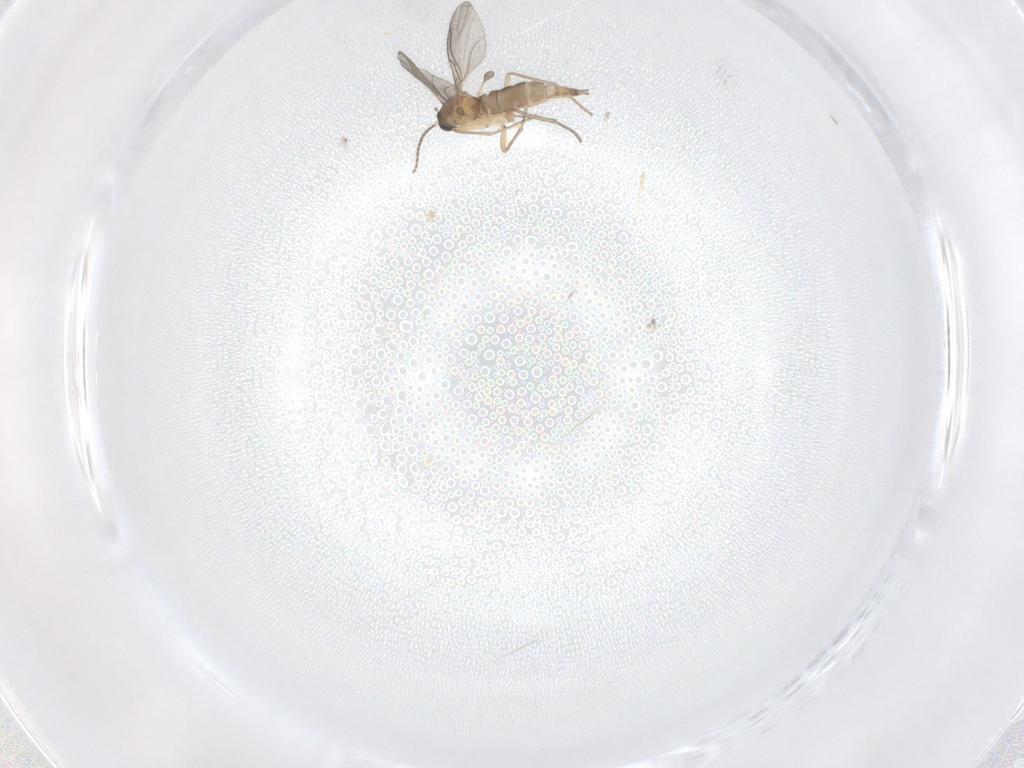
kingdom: Animalia
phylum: Arthropoda
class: Insecta
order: Diptera
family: Sciaridae
